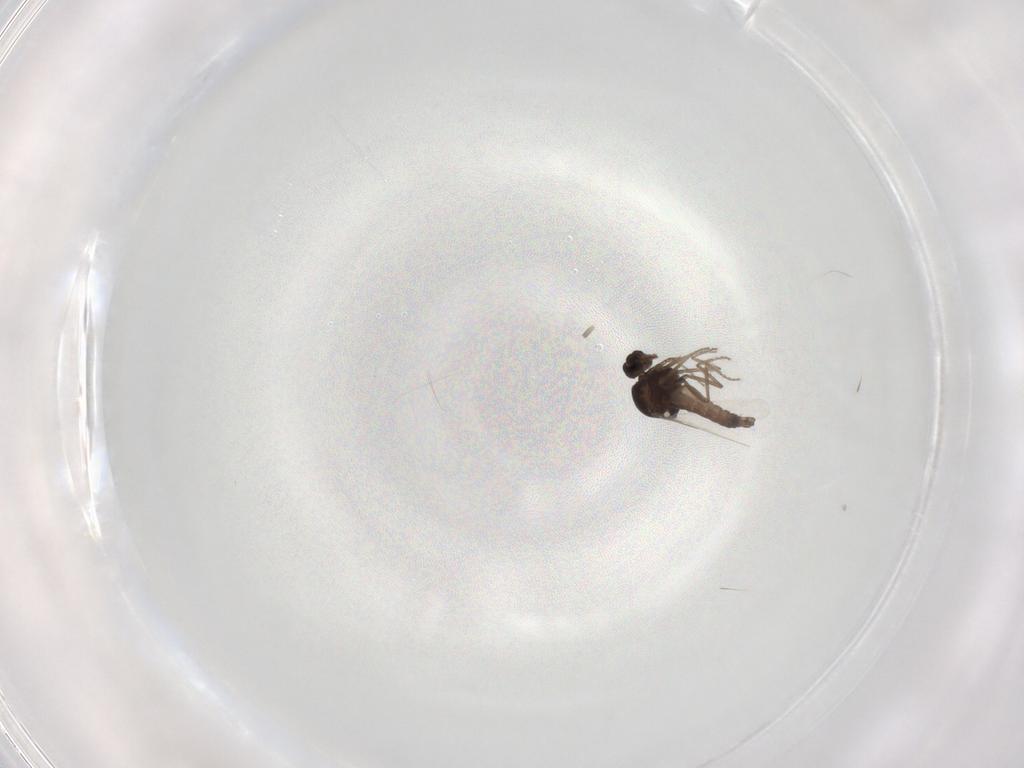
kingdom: Animalia
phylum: Arthropoda
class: Insecta
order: Diptera
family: Ceratopogonidae
